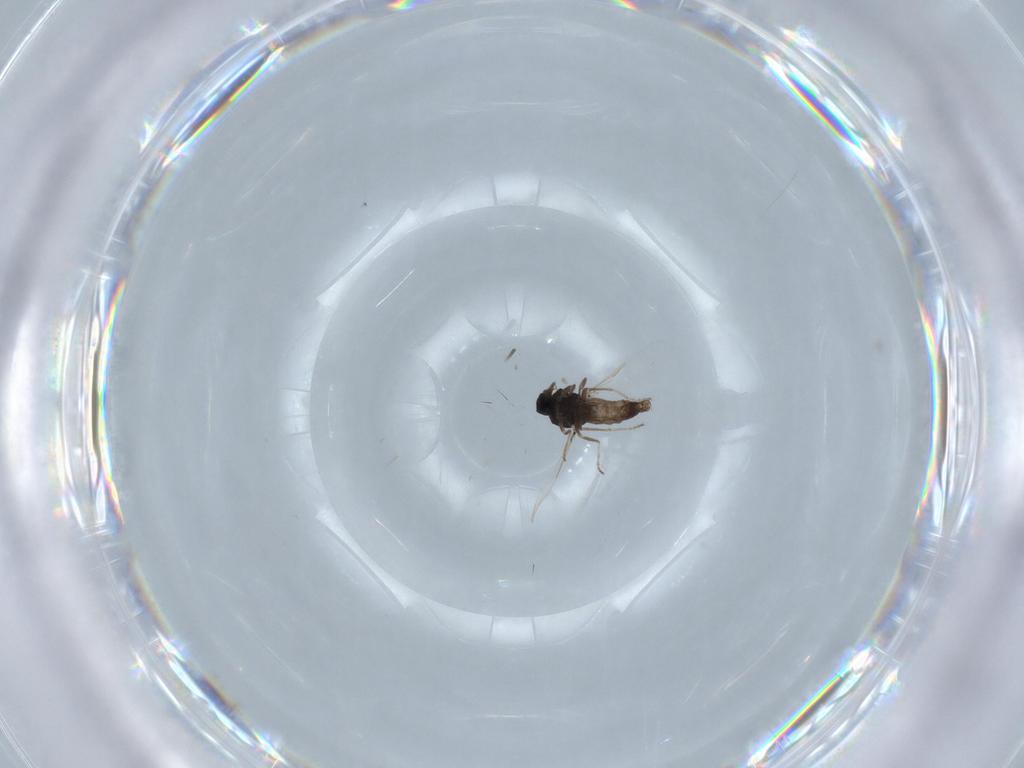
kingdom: Animalia
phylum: Arthropoda
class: Insecta
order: Diptera
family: Ceratopogonidae
